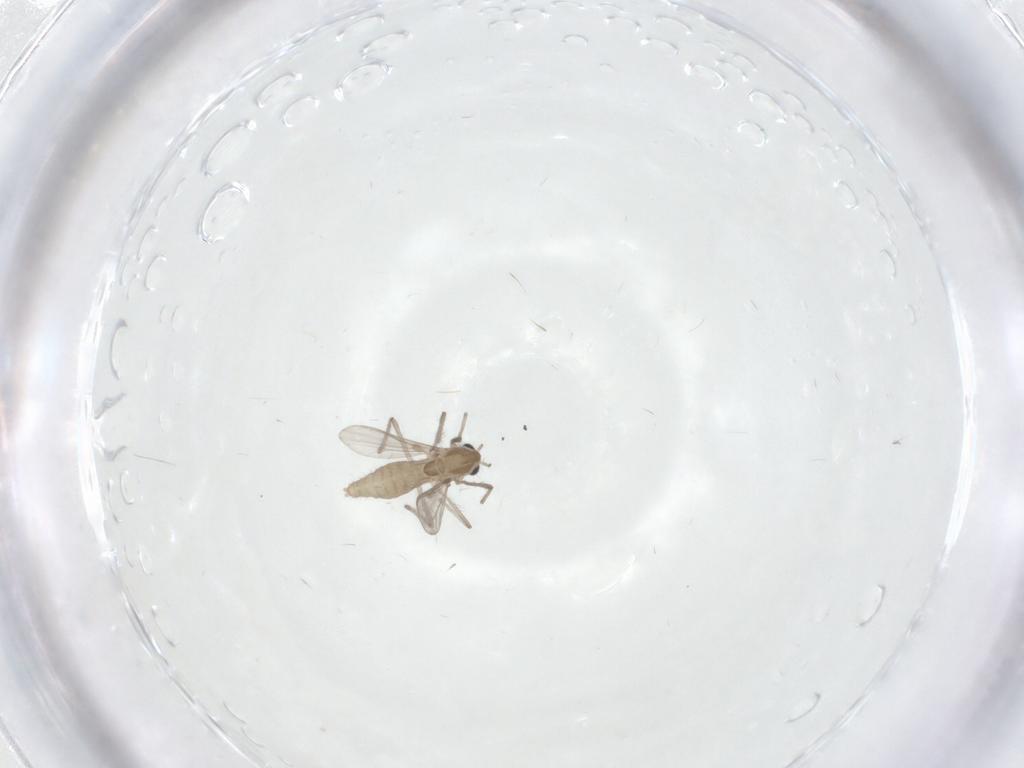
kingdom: Animalia
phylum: Arthropoda
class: Insecta
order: Diptera
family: Chironomidae
